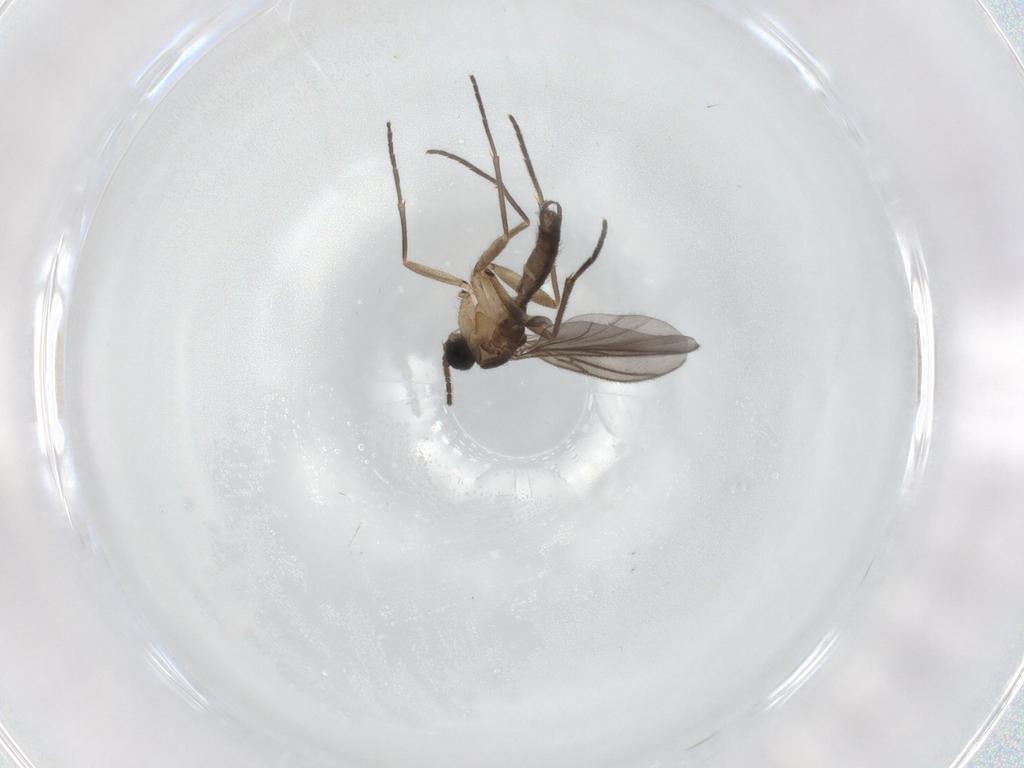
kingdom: Animalia
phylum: Arthropoda
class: Insecta
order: Diptera
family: Sciaridae
